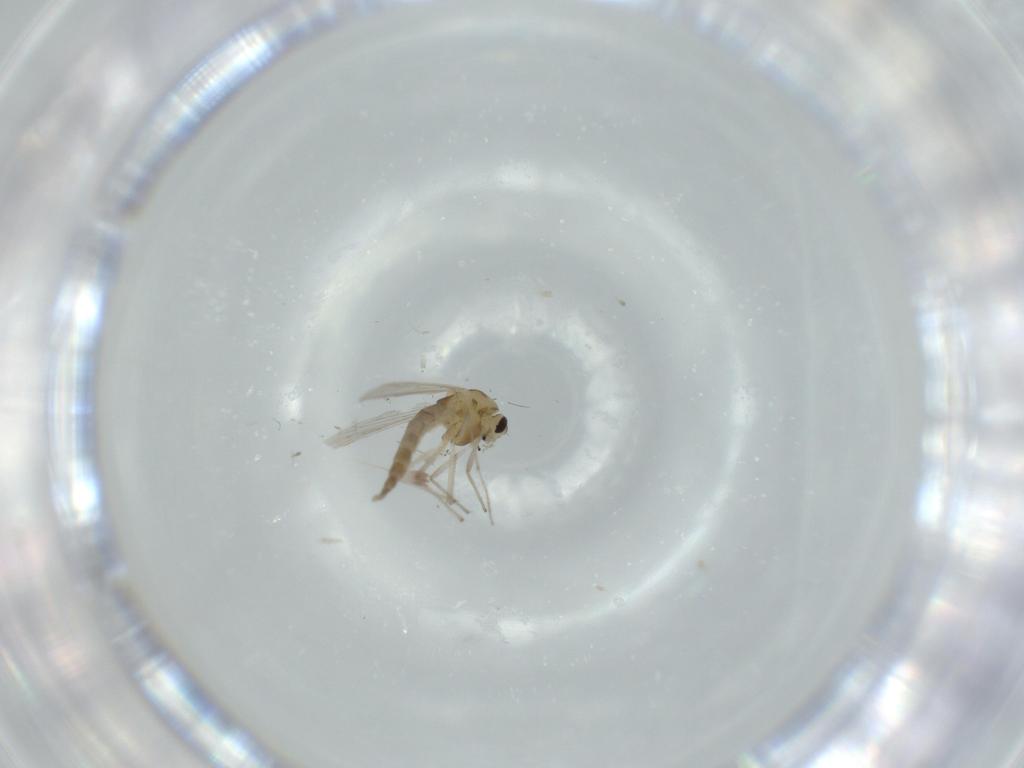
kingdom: Animalia
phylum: Arthropoda
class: Insecta
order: Diptera
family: Chironomidae
